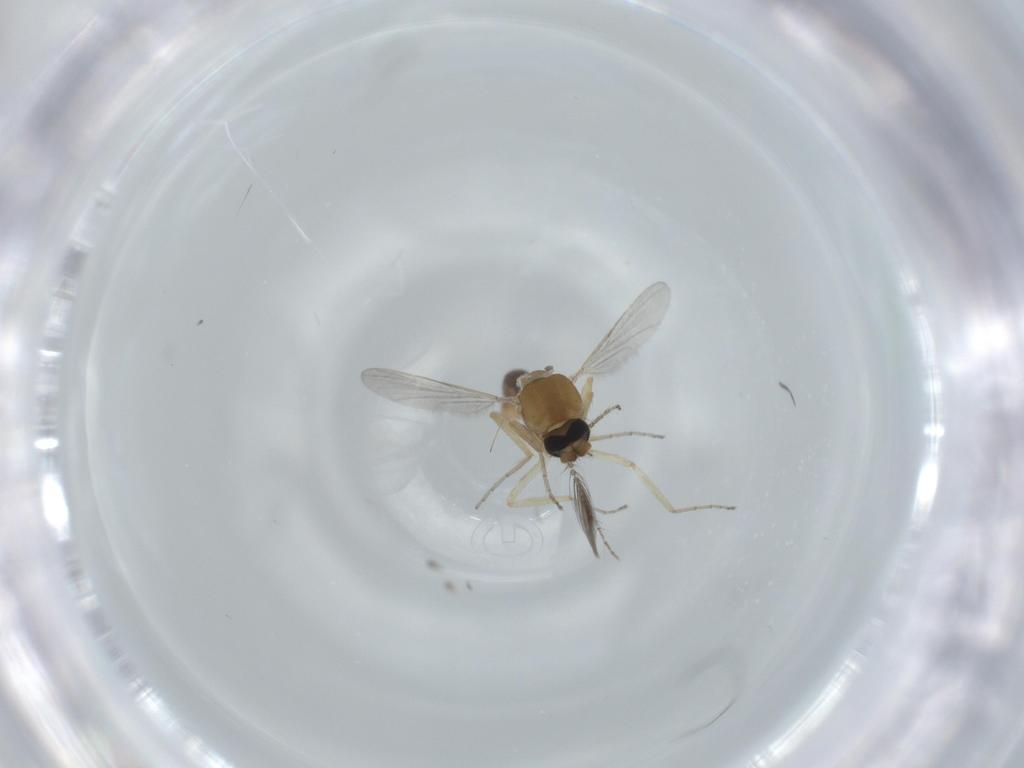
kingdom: Animalia
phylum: Arthropoda
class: Insecta
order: Diptera
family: Ceratopogonidae
